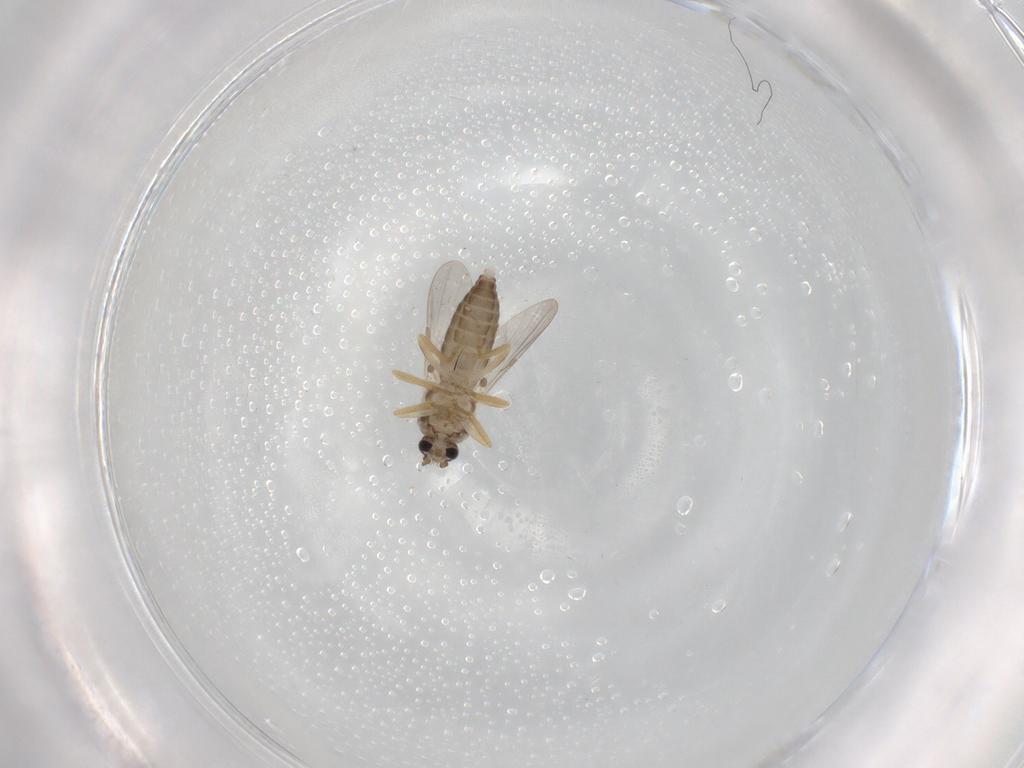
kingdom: Animalia
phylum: Arthropoda
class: Insecta
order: Diptera
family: Ceratopogonidae
